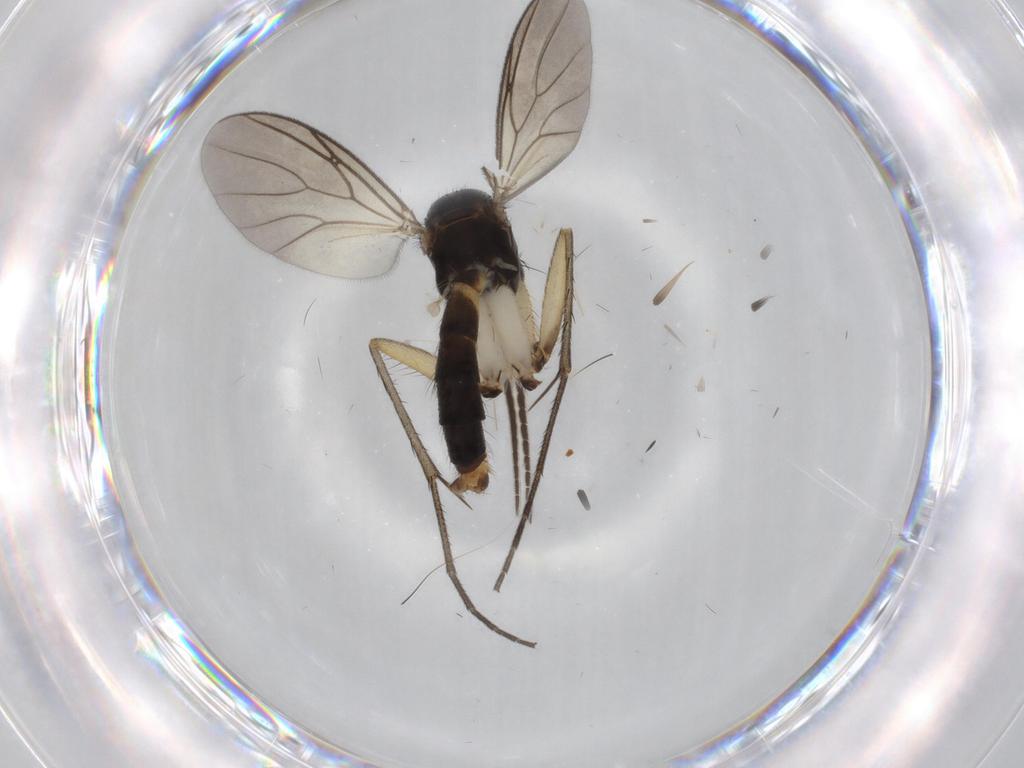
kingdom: Animalia
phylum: Arthropoda
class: Insecta
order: Diptera
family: Phoridae
